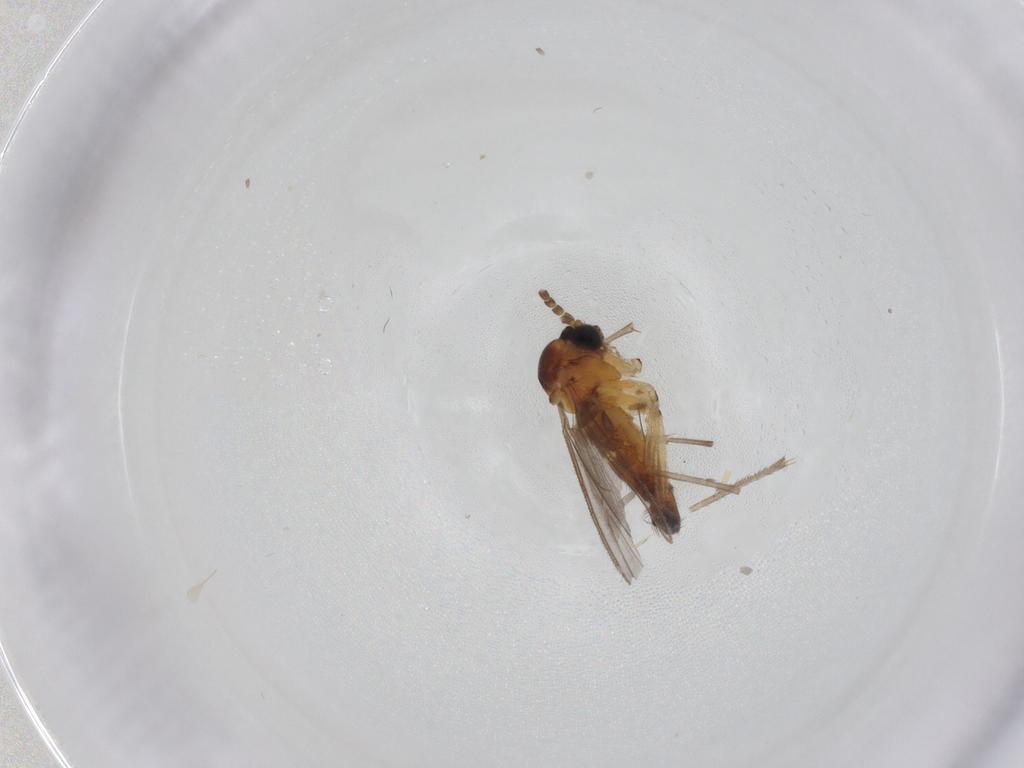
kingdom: Animalia
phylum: Arthropoda
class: Insecta
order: Diptera
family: Sciaridae
